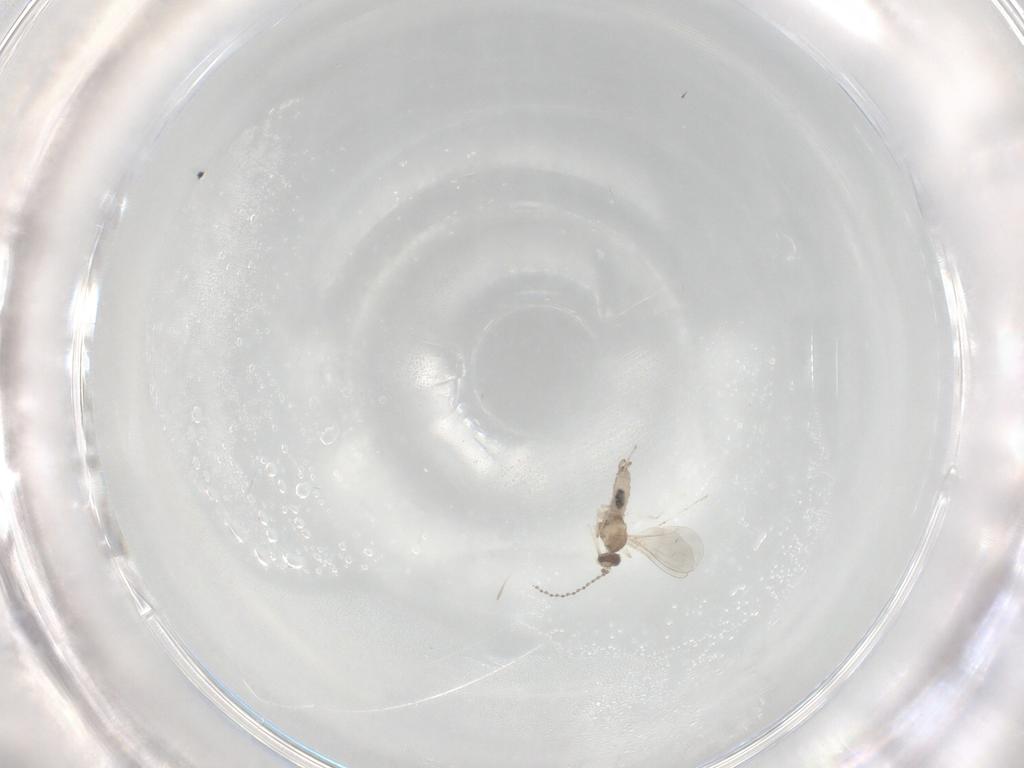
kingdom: Animalia
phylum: Arthropoda
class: Insecta
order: Diptera
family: Cecidomyiidae
